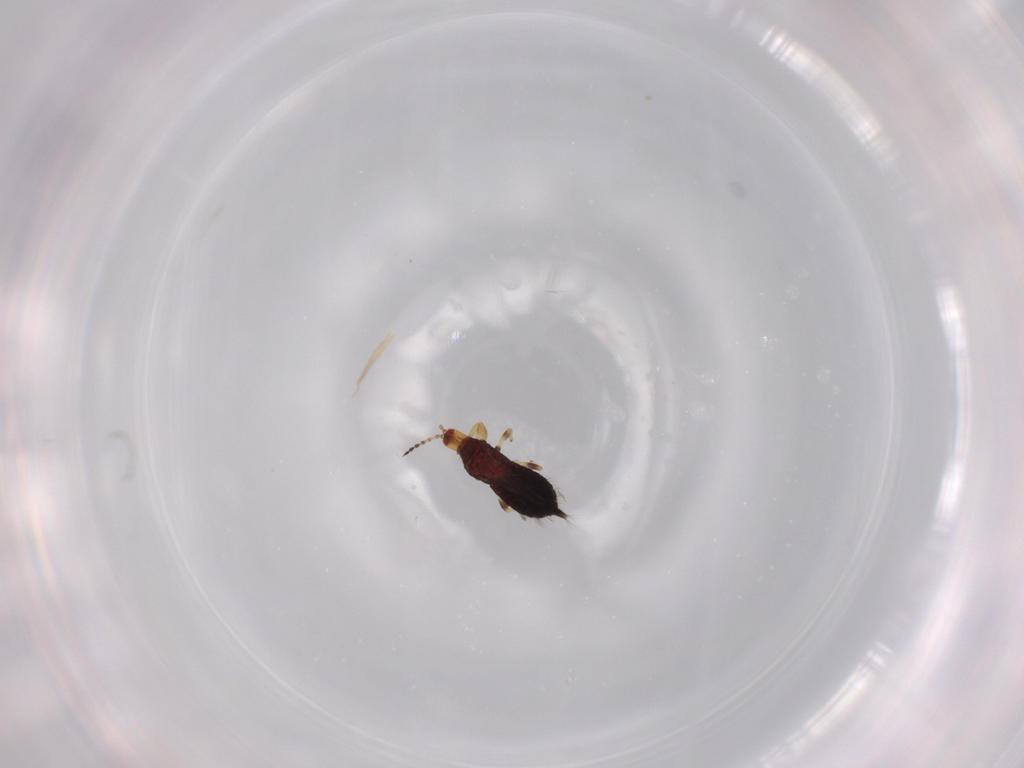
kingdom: Animalia
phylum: Arthropoda
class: Insecta
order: Thysanoptera
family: Phlaeothripidae
